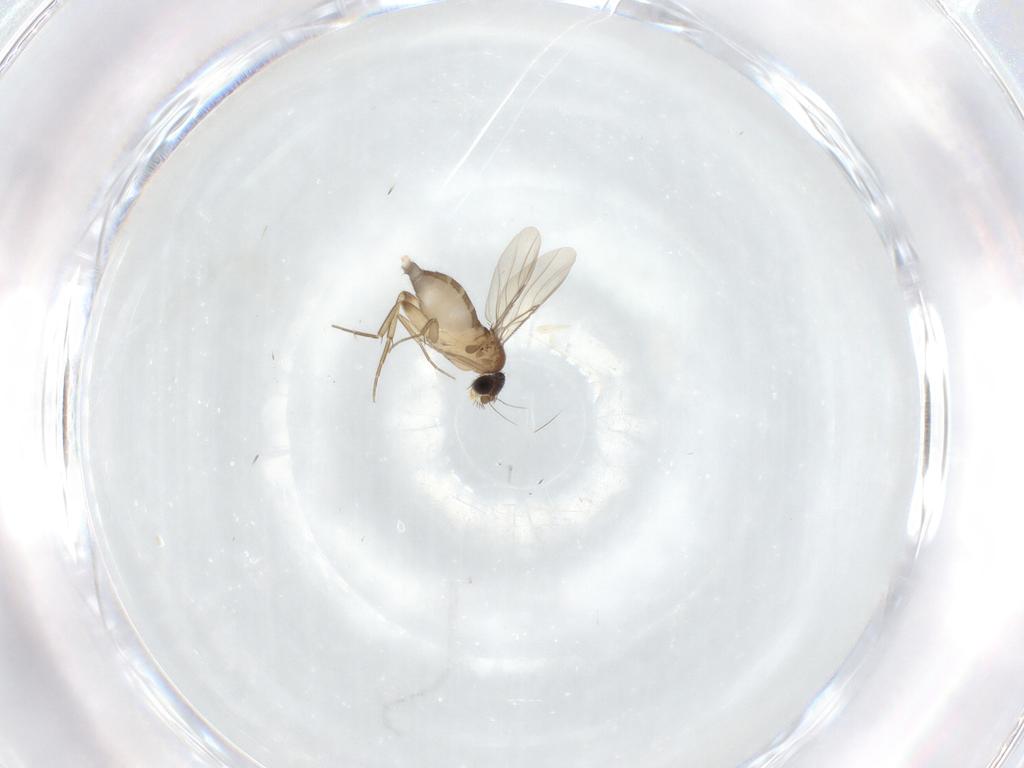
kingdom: Animalia
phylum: Arthropoda
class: Insecta
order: Diptera
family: Phoridae
